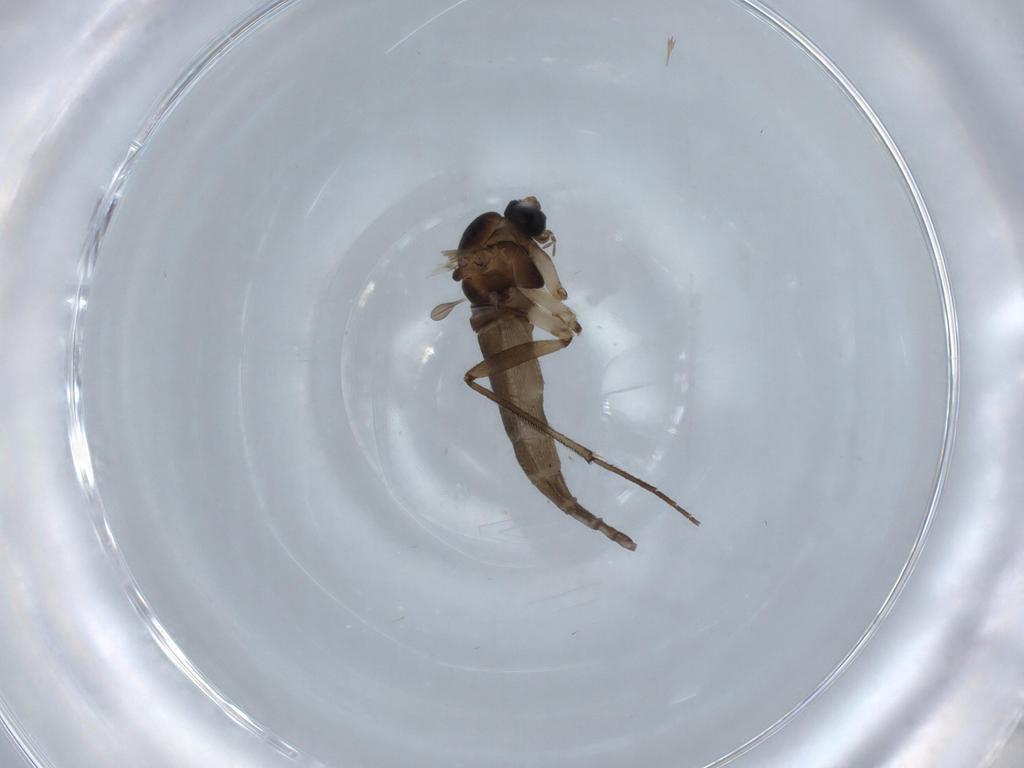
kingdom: Animalia
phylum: Arthropoda
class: Insecta
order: Diptera
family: Sciaridae
